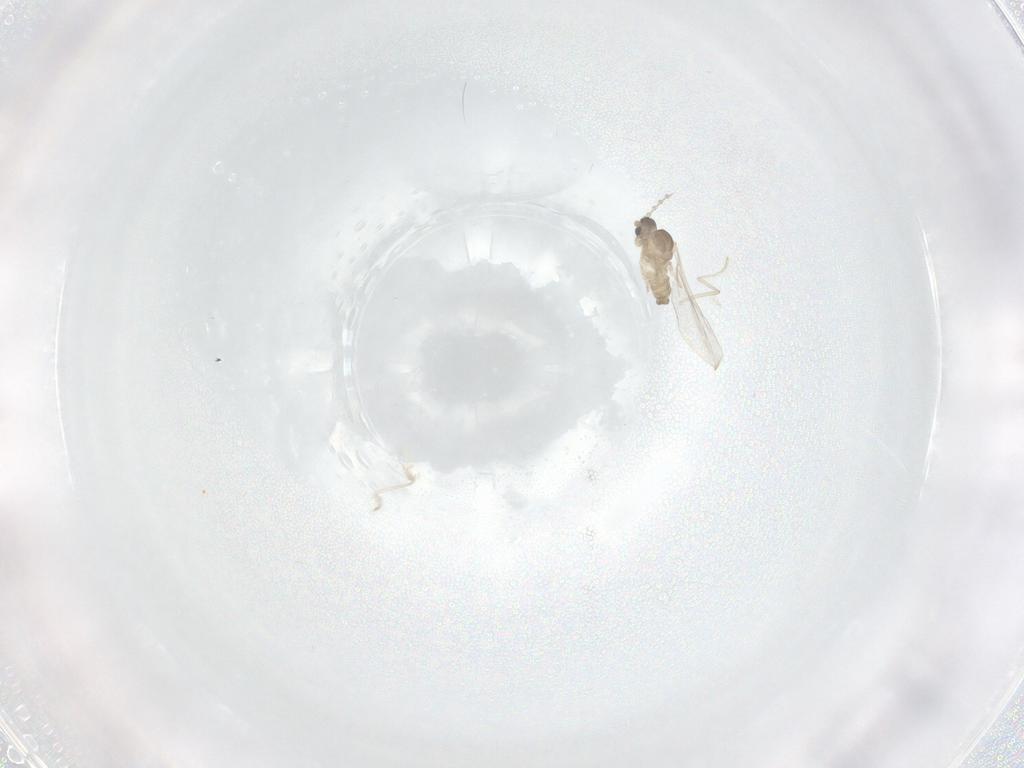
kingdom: Animalia
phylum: Arthropoda
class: Insecta
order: Diptera
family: Cecidomyiidae
